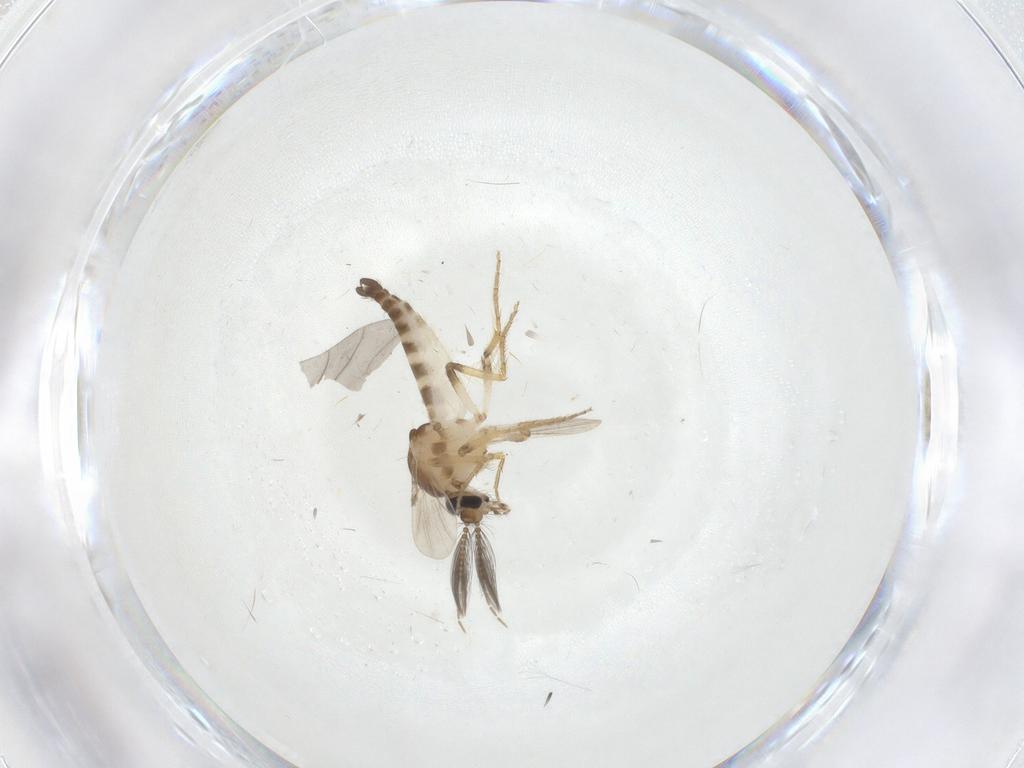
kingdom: Animalia
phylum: Arthropoda
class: Insecta
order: Diptera
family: Ceratopogonidae
